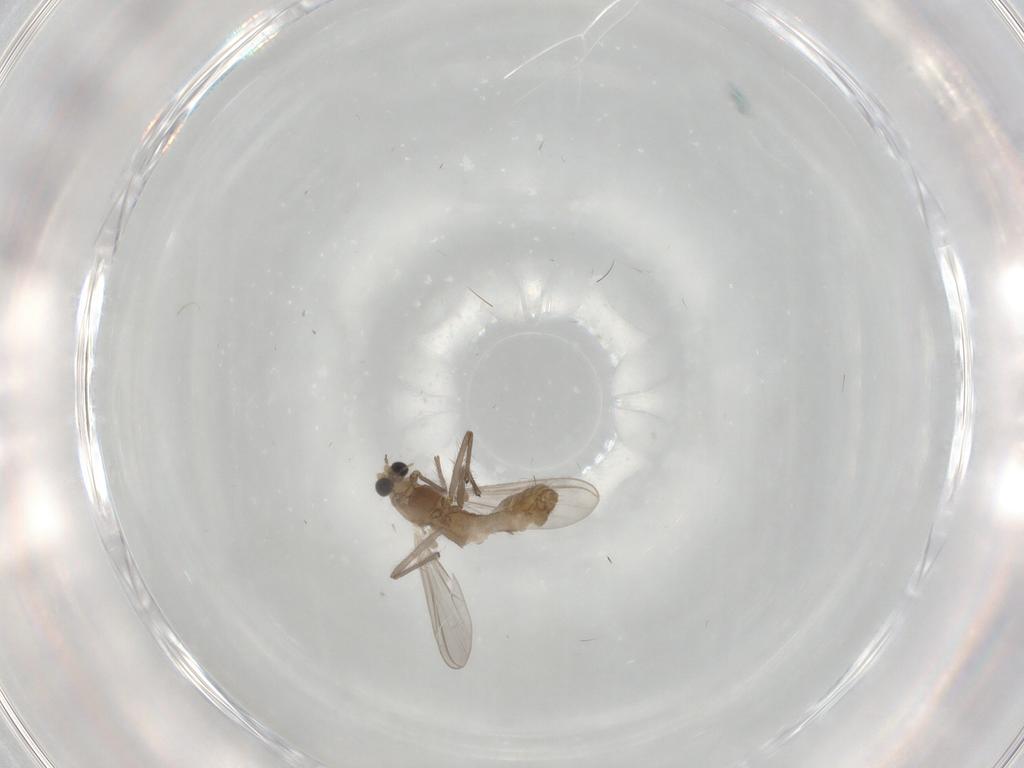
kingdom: Animalia
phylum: Arthropoda
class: Insecta
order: Diptera
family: Chironomidae
